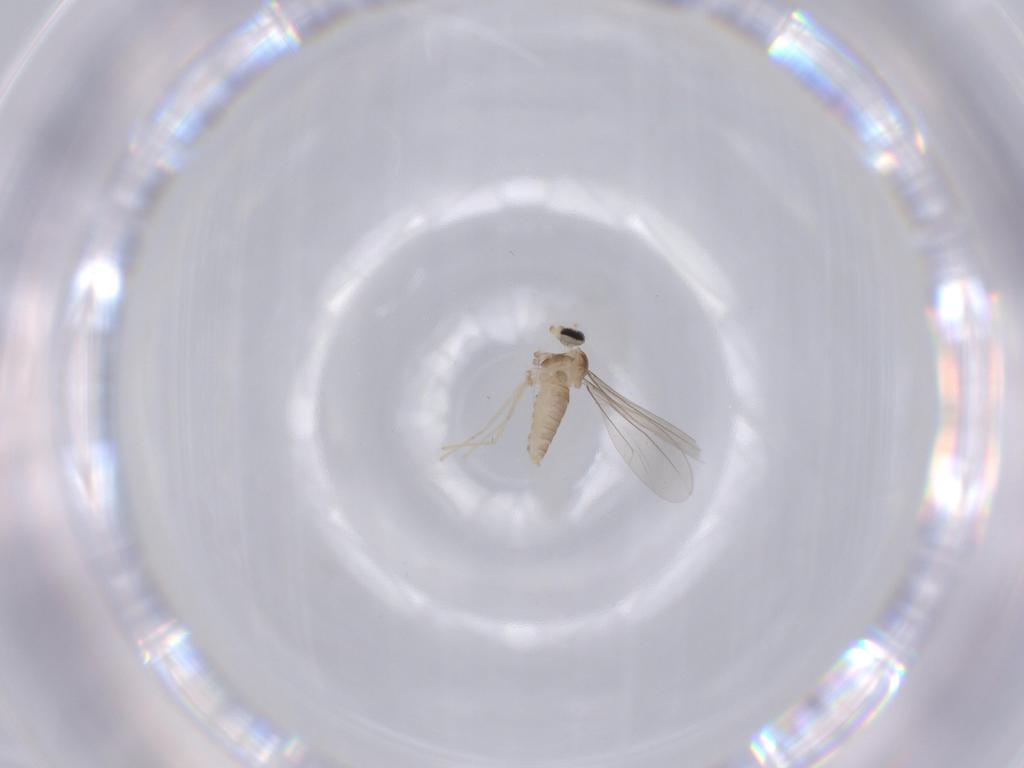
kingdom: Animalia
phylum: Arthropoda
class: Insecta
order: Diptera
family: Cecidomyiidae
